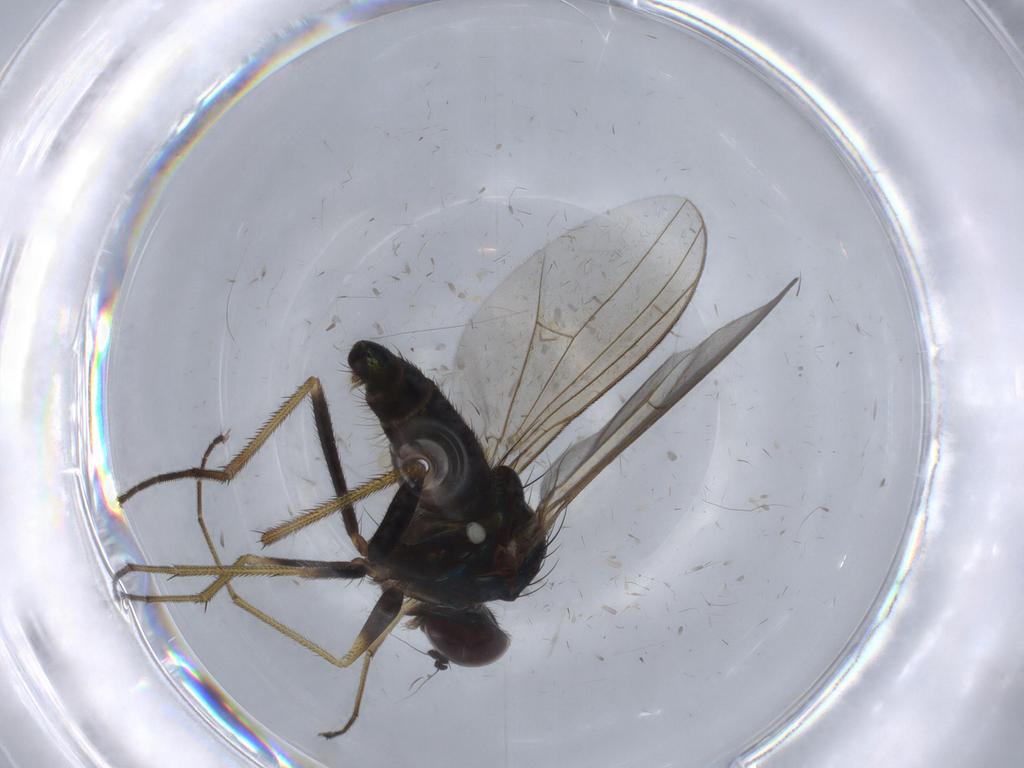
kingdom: Animalia
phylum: Arthropoda
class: Insecta
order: Diptera
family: Dolichopodidae
